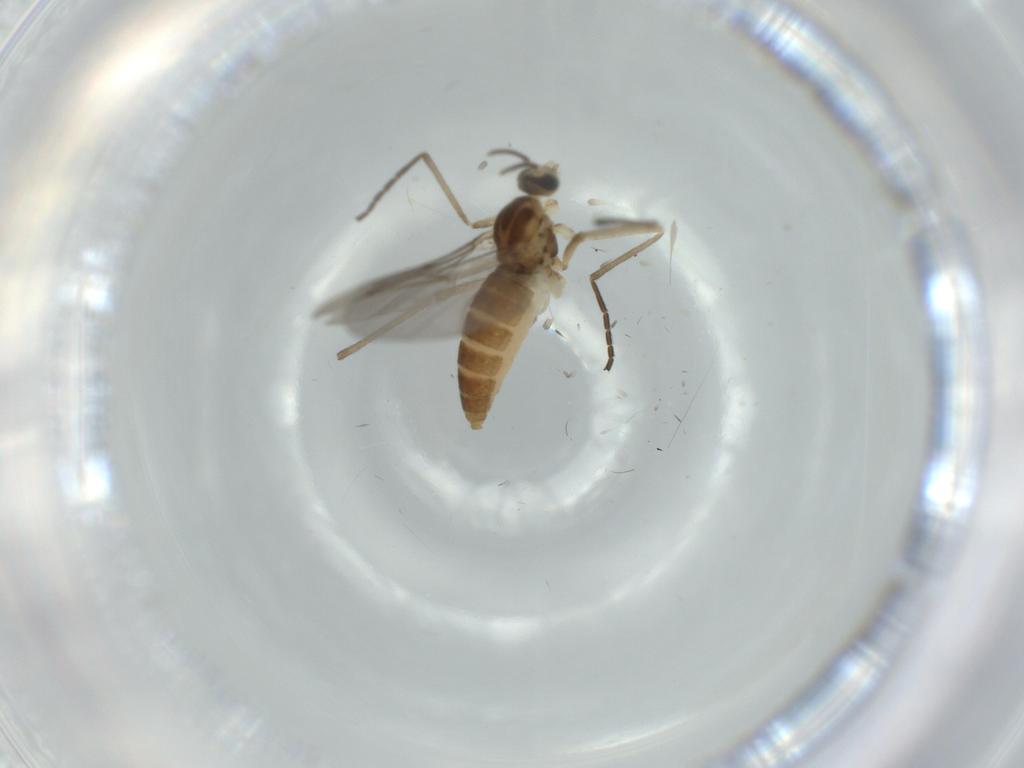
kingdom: Animalia
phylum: Arthropoda
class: Insecta
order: Diptera
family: Cecidomyiidae
